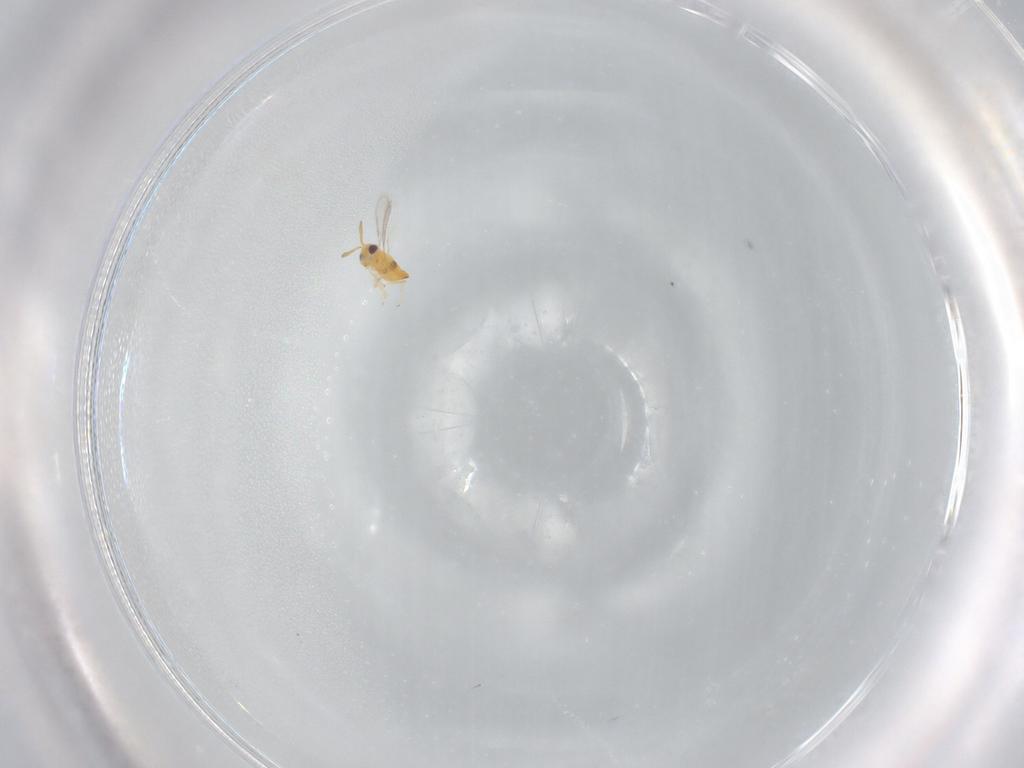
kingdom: Animalia
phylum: Arthropoda
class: Insecta
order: Hymenoptera
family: Aphelinidae
